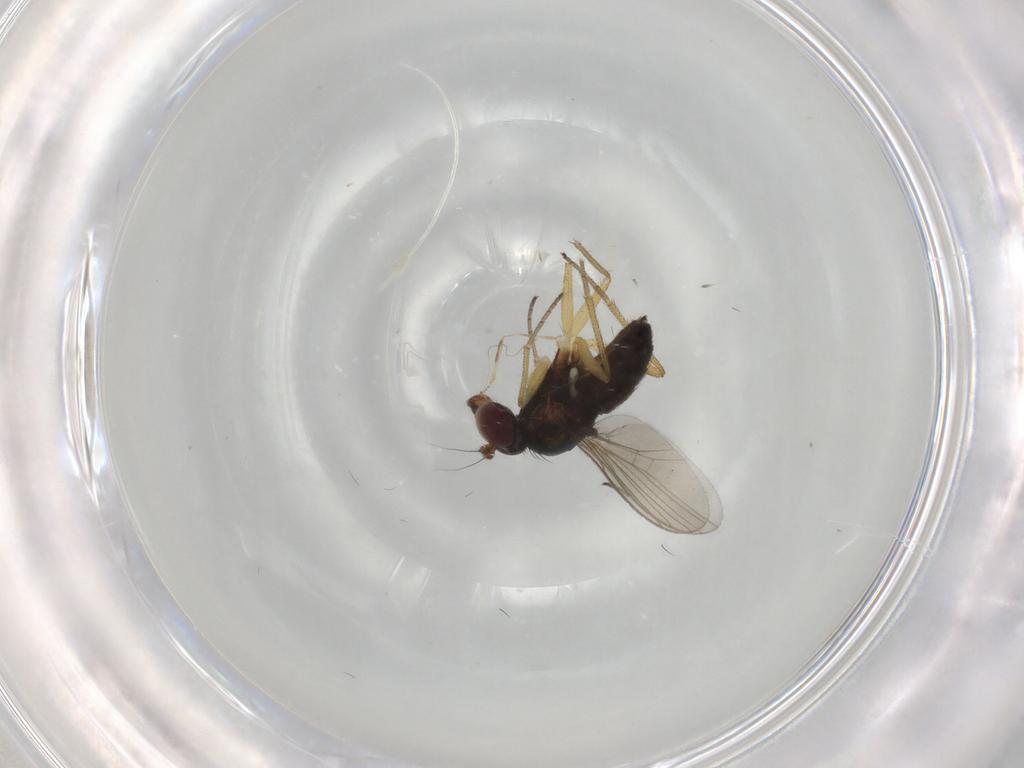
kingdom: Animalia
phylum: Arthropoda
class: Insecta
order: Diptera
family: Dolichopodidae
